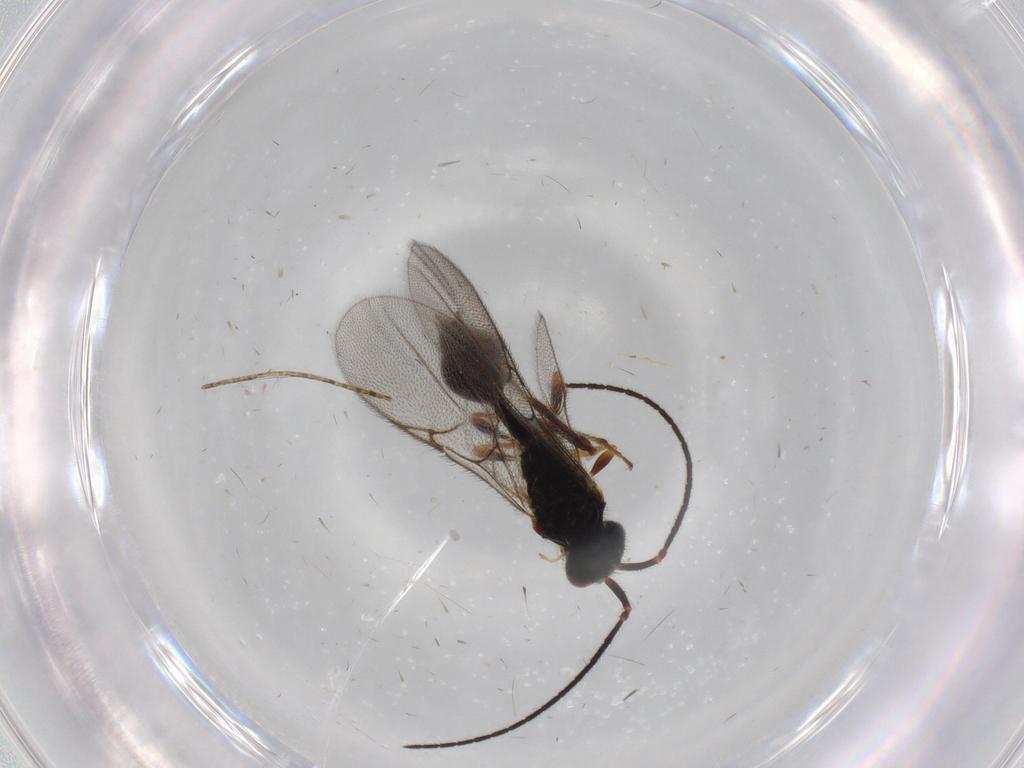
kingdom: Animalia
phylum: Arthropoda
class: Insecta
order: Hymenoptera
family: Diapriidae
